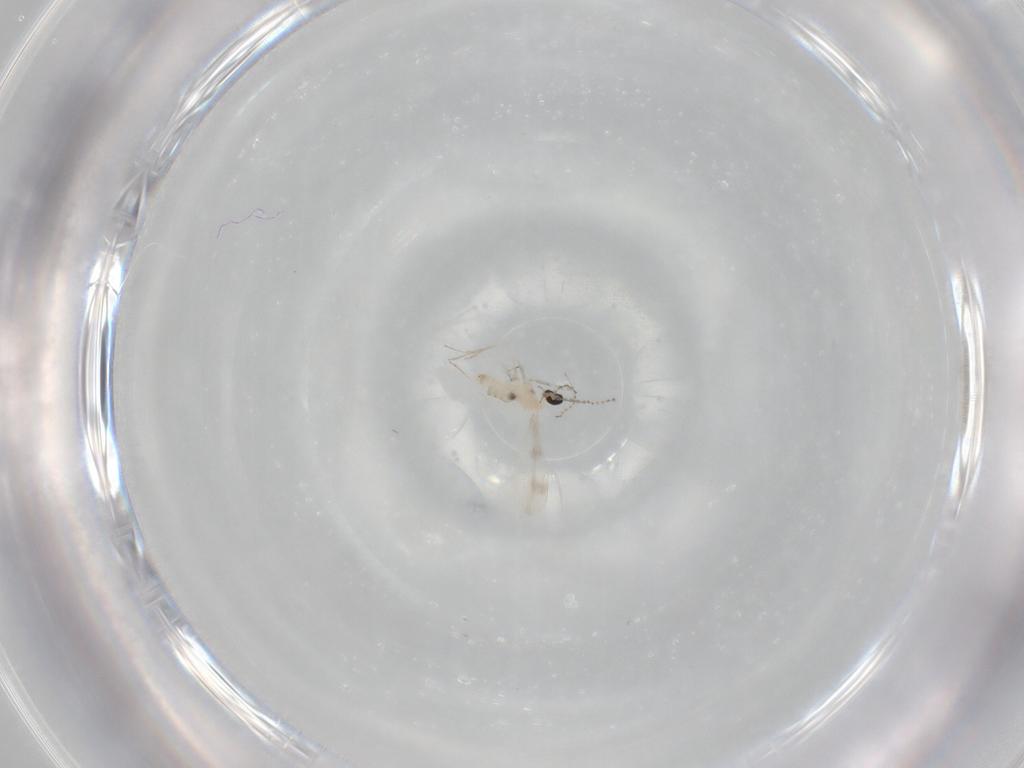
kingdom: Animalia
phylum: Arthropoda
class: Insecta
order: Diptera
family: Cecidomyiidae
